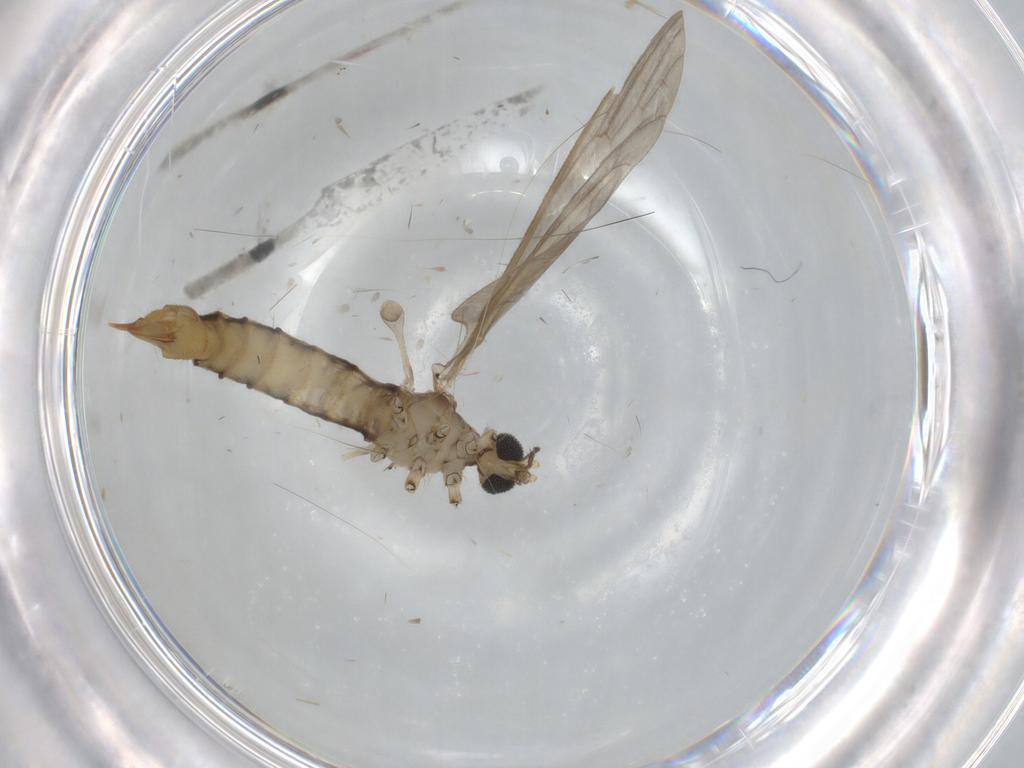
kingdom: Animalia
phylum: Arthropoda
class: Insecta
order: Diptera
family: Limoniidae
